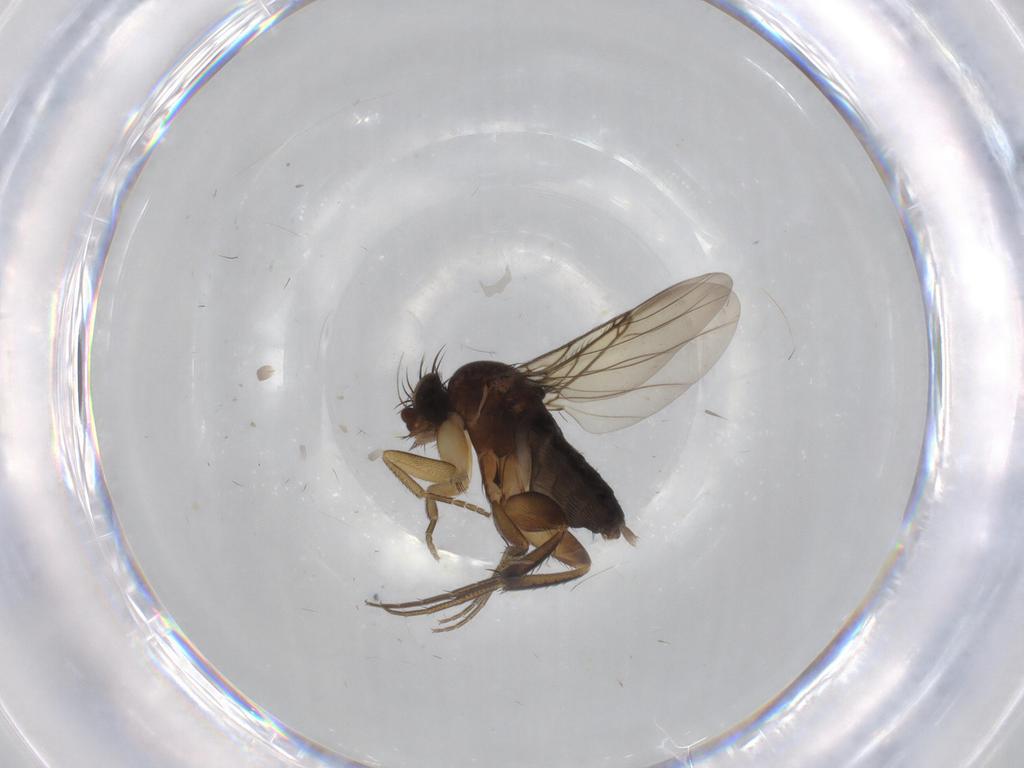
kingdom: Animalia
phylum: Arthropoda
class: Insecta
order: Diptera
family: Phoridae
